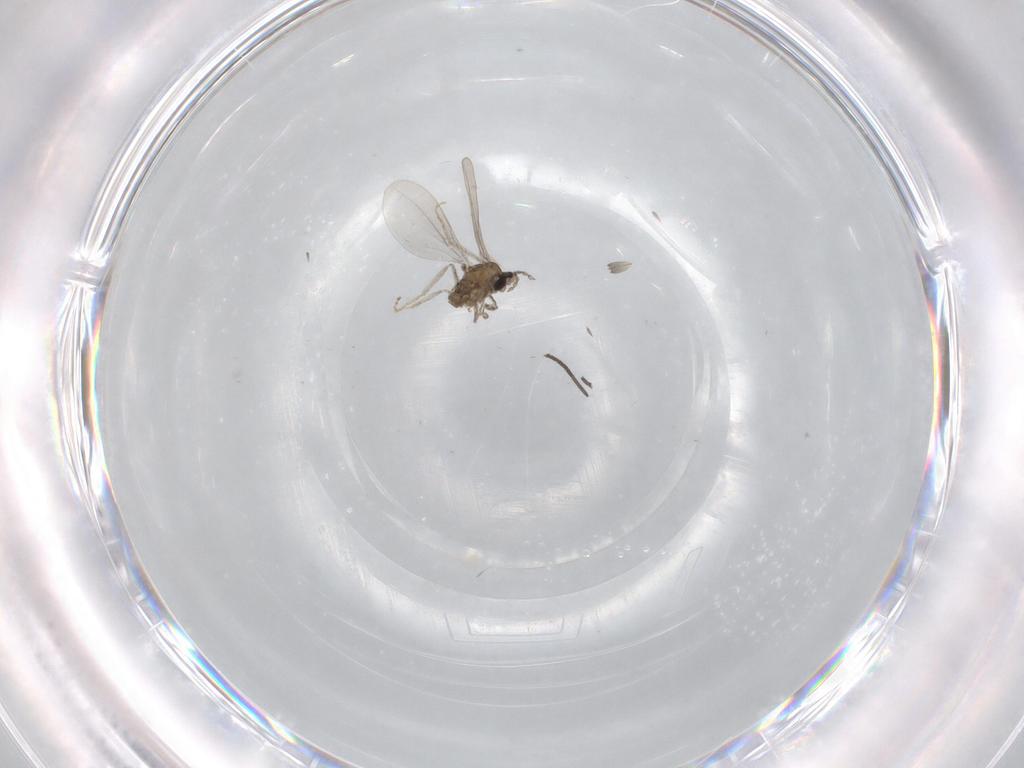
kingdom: Animalia
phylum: Arthropoda
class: Insecta
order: Diptera
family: Cecidomyiidae
